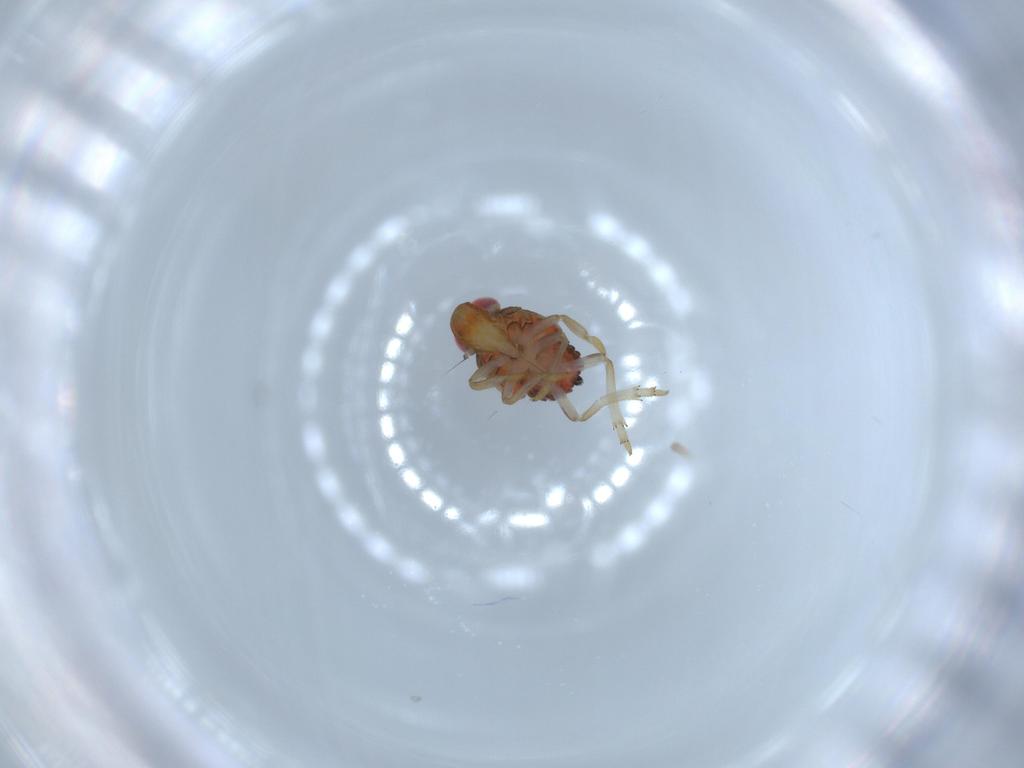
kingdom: Animalia
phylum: Arthropoda
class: Insecta
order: Hemiptera
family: Issidae
